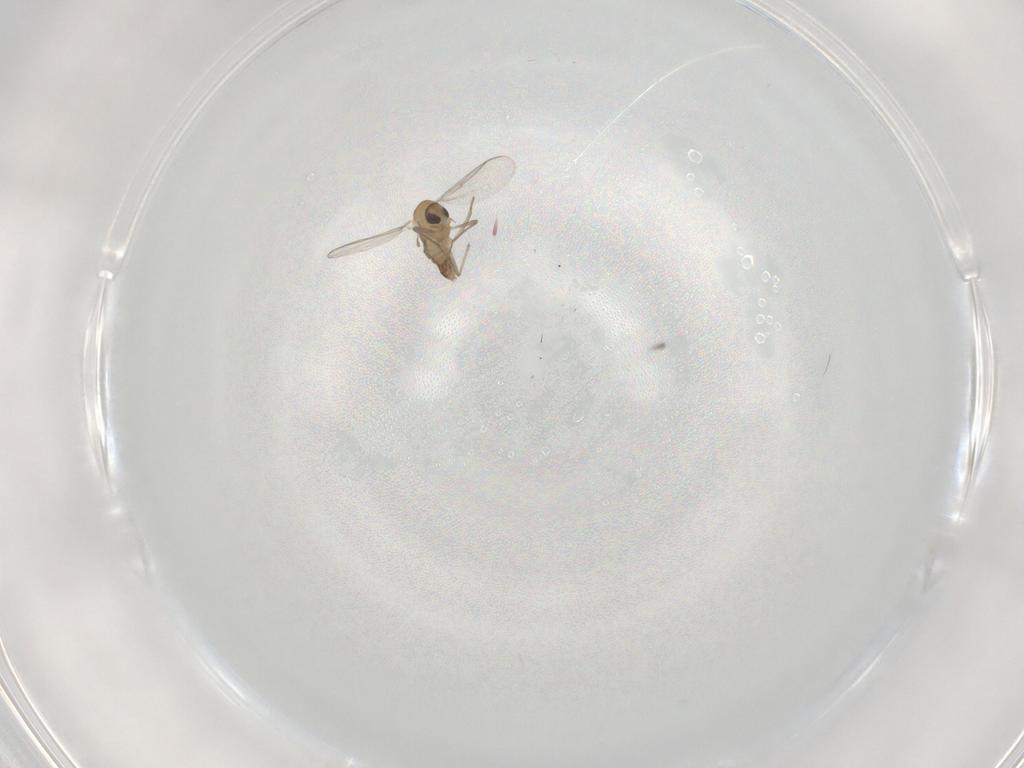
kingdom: Animalia
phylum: Arthropoda
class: Insecta
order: Diptera
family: Chironomidae
